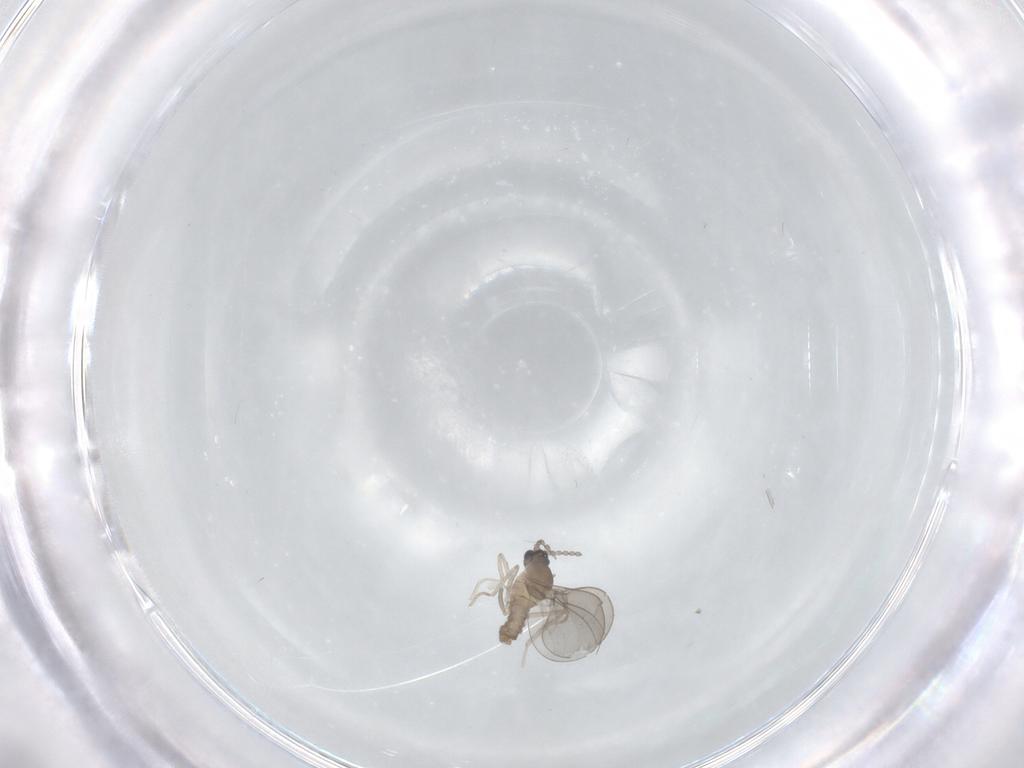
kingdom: Animalia
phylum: Arthropoda
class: Insecta
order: Diptera
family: Cecidomyiidae
